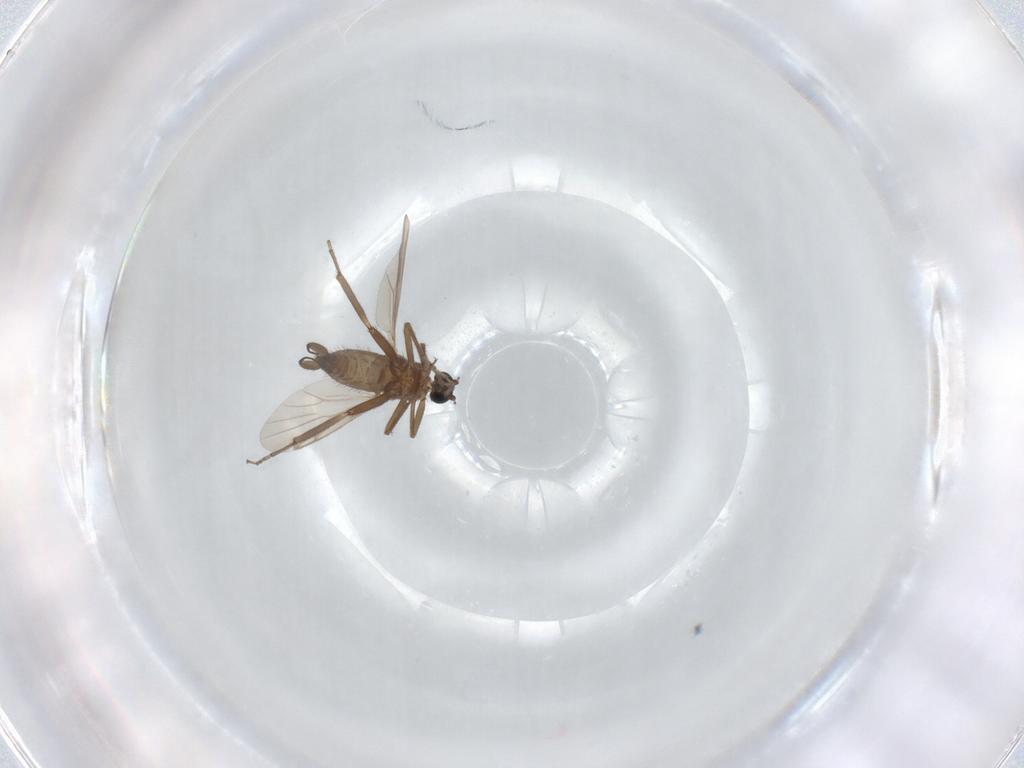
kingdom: Animalia
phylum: Arthropoda
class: Insecta
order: Diptera
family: Ceratopogonidae
